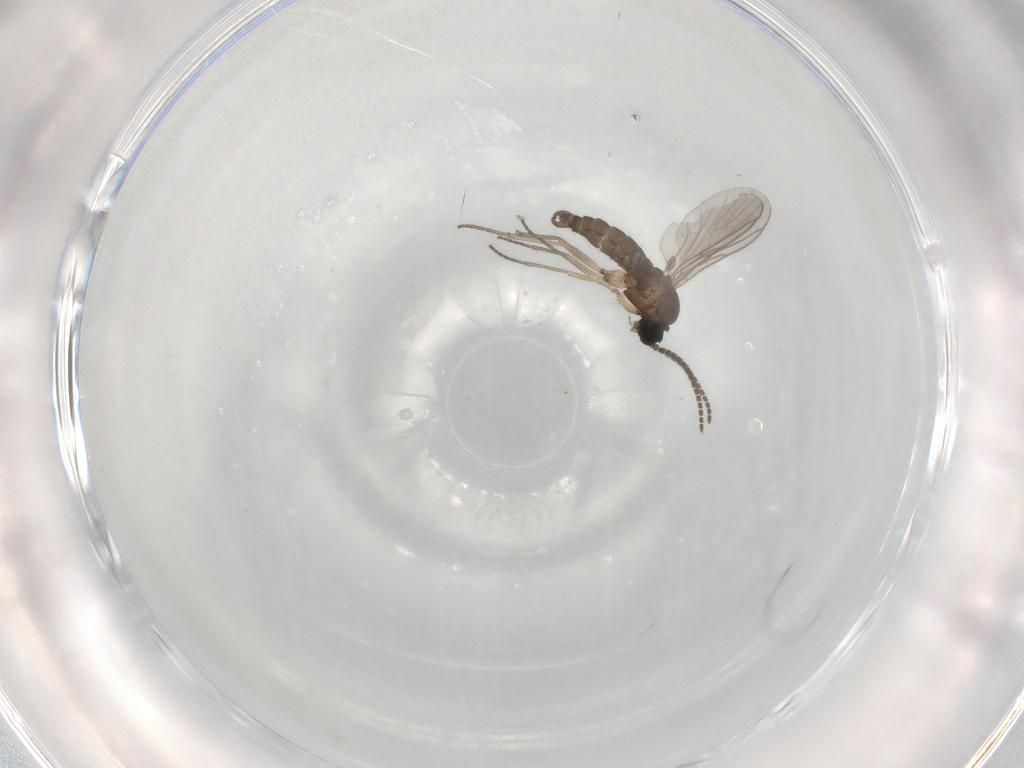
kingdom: Animalia
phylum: Arthropoda
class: Insecta
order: Diptera
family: Sciaridae
